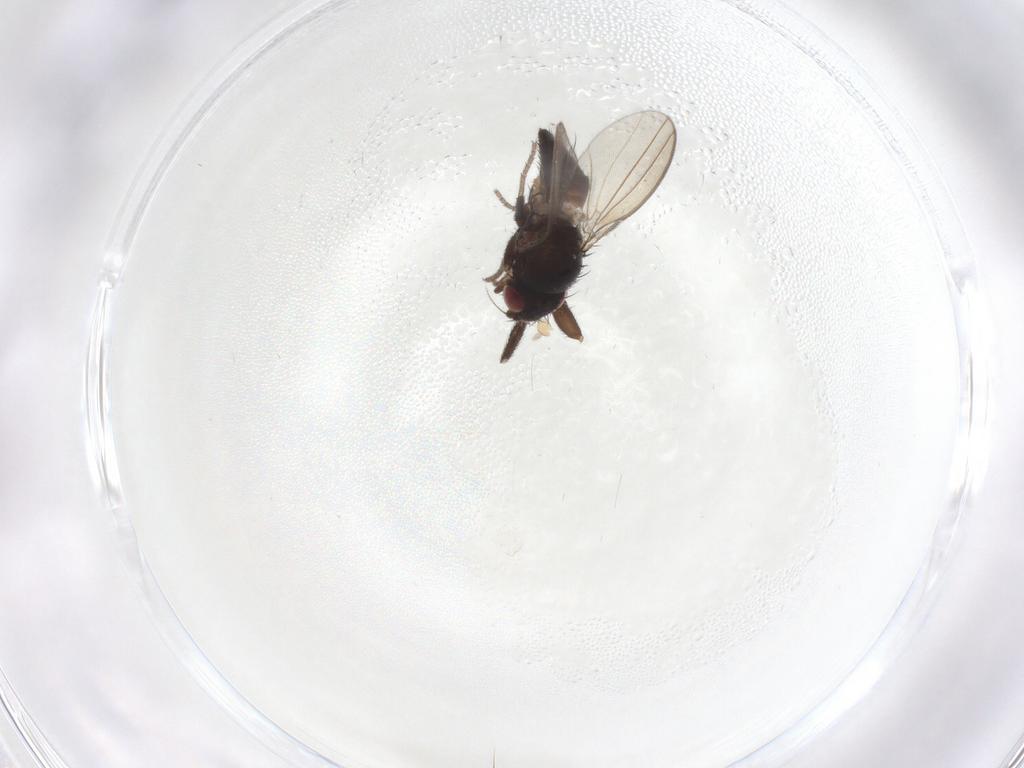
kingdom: Animalia
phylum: Arthropoda
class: Insecta
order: Diptera
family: Milichiidae
